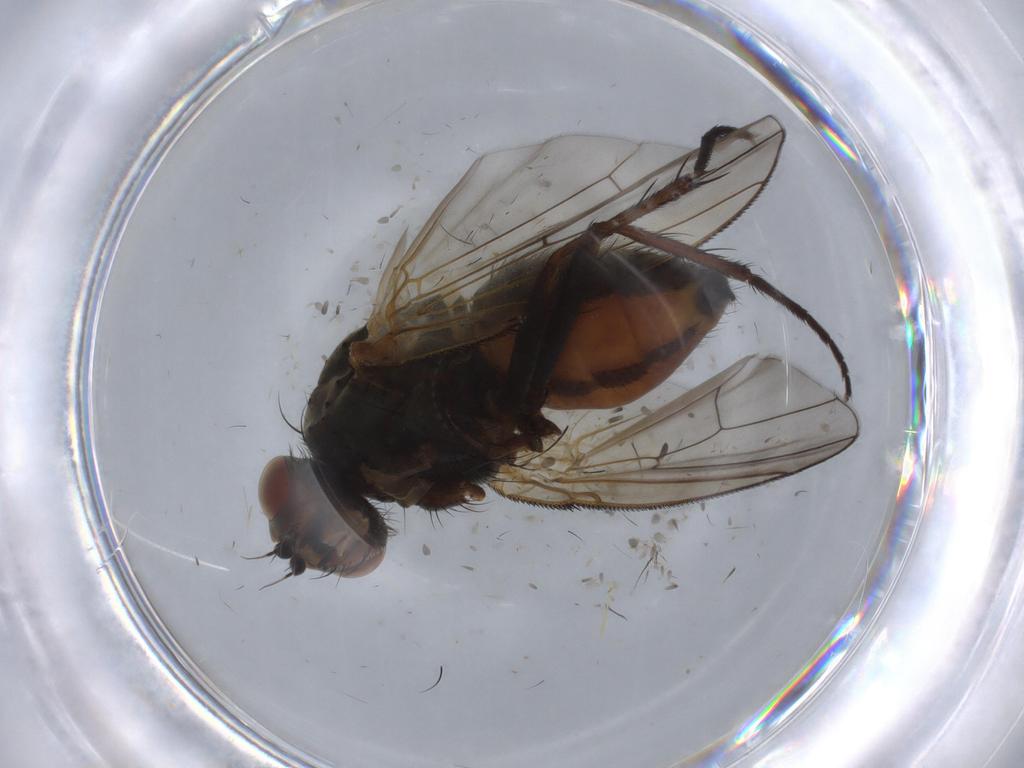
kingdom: Animalia
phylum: Arthropoda
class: Insecta
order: Diptera
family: Anthomyiidae
